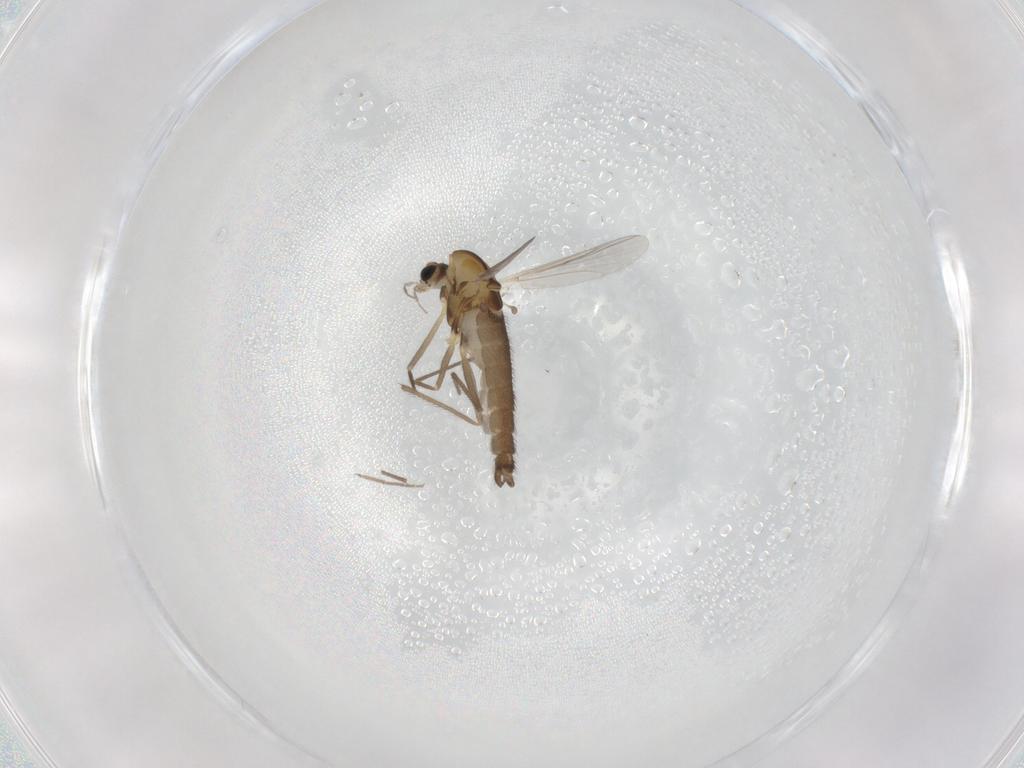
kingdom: Animalia
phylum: Arthropoda
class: Insecta
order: Diptera
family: Chironomidae
